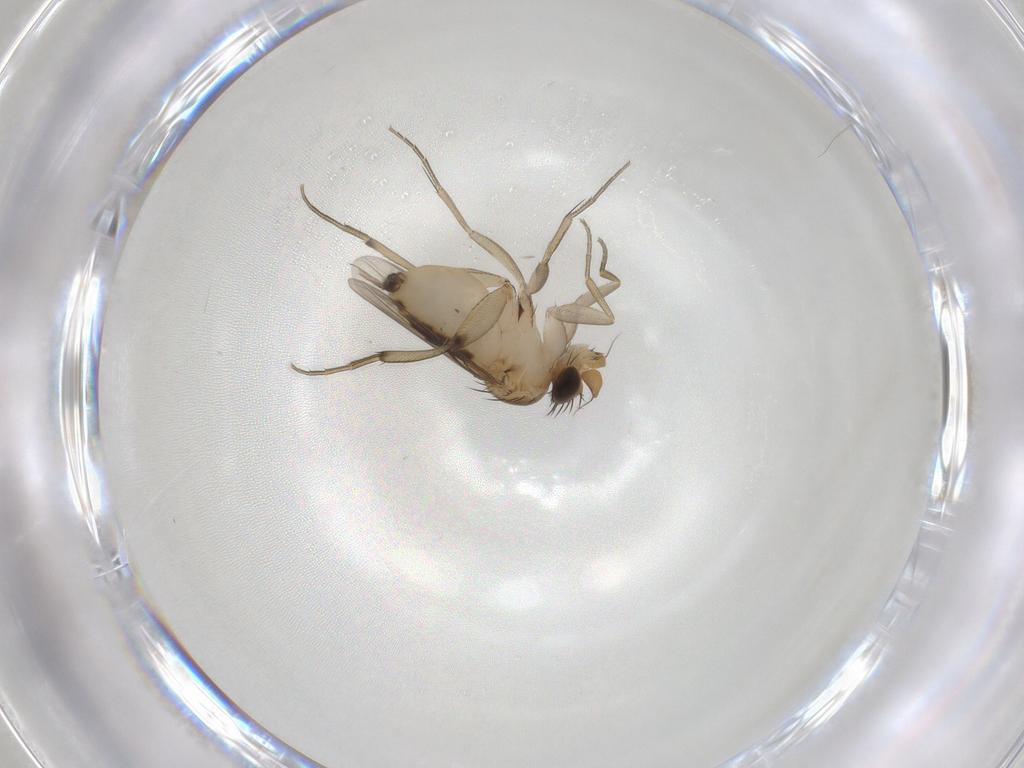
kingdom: Animalia
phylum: Arthropoda
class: Insecta
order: Diptera
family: Phoridae
